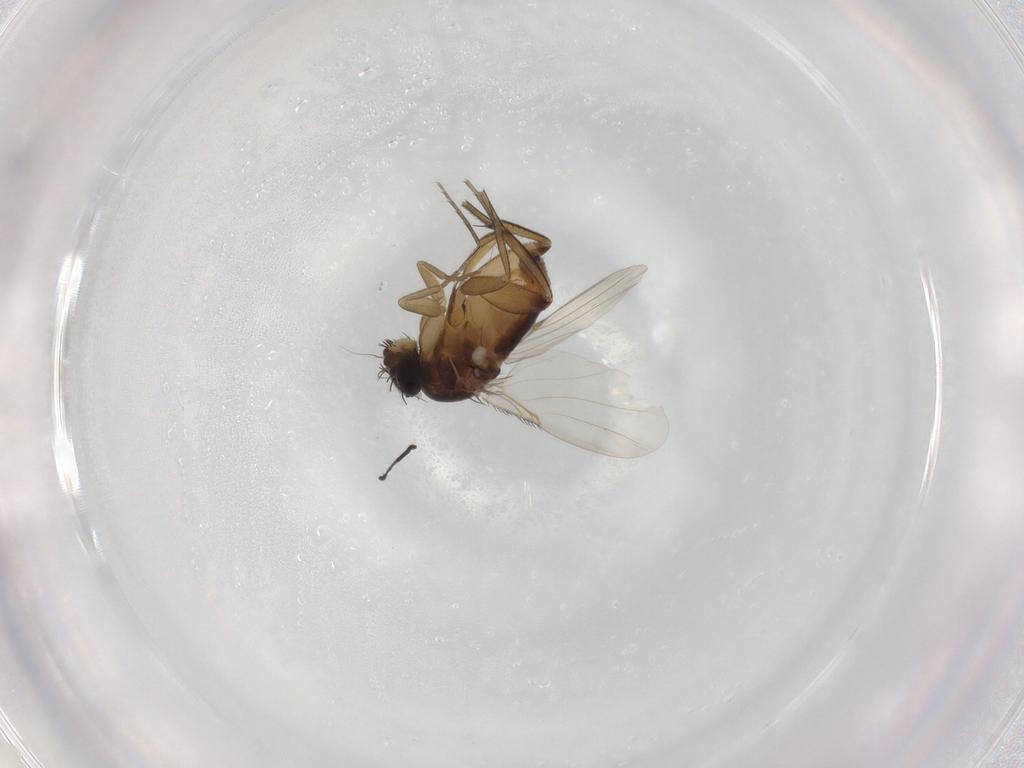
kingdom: Animalia
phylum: Arthropoda
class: Insecta
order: Diptera
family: Phoridae
